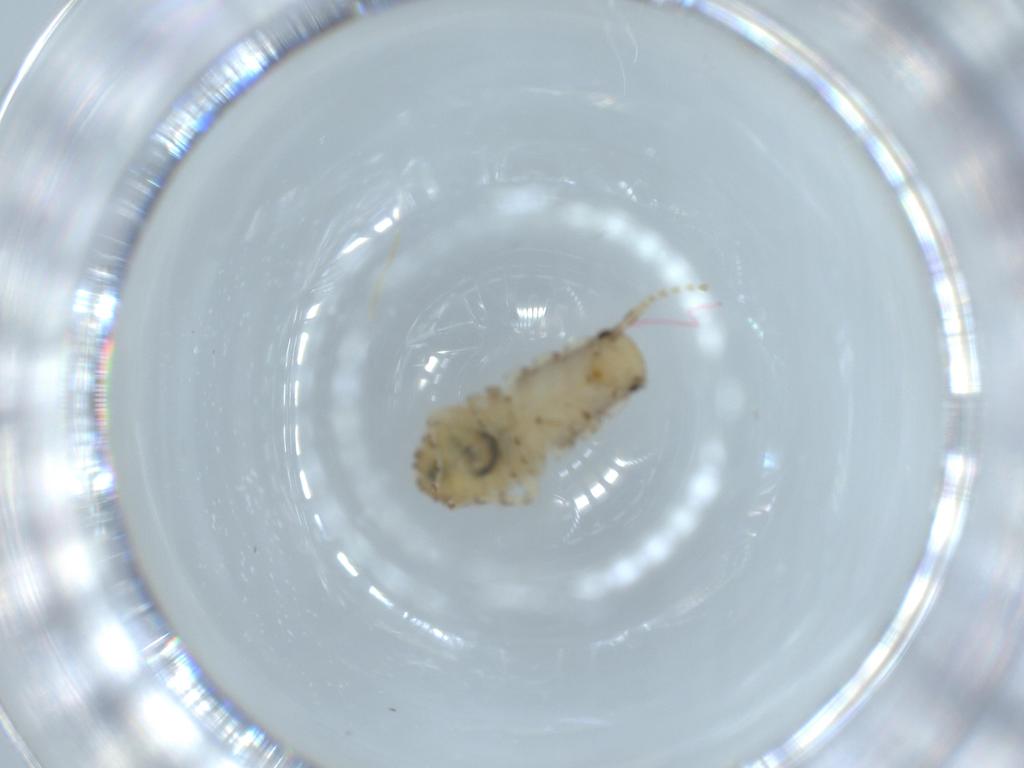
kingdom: Animalia
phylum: Arthropoda
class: Insecta
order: Blattodea
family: Ectobiidae
